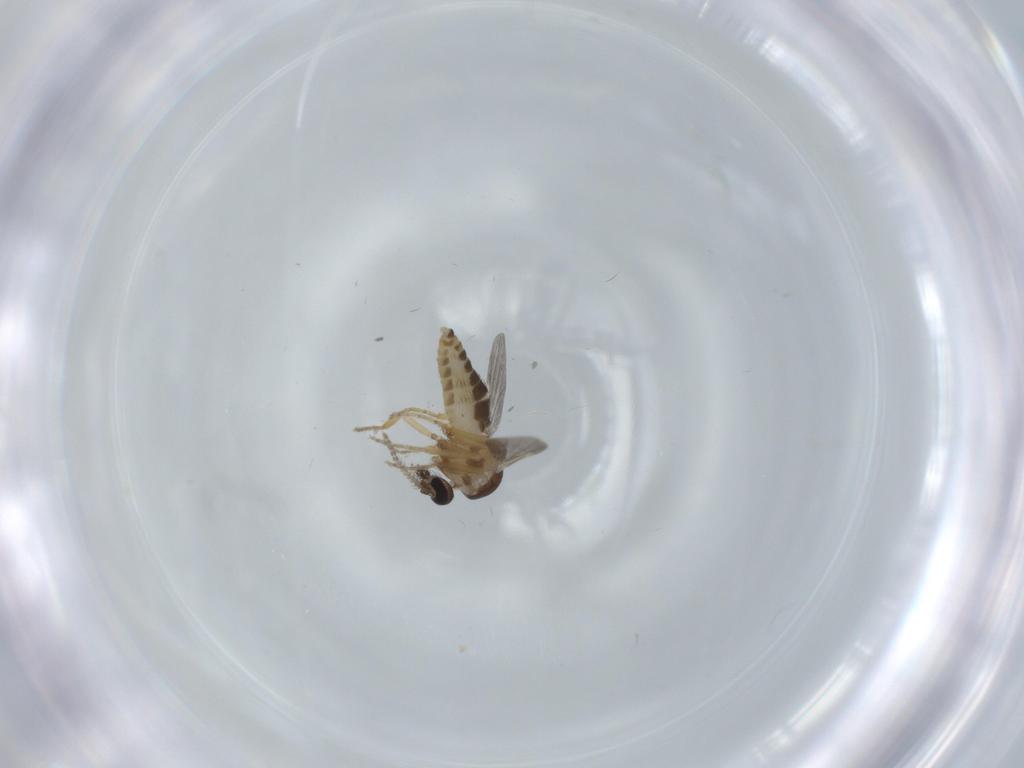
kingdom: Animalia
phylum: Arthropoda
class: Insecta
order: Diptera
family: Ceratopogonidae
